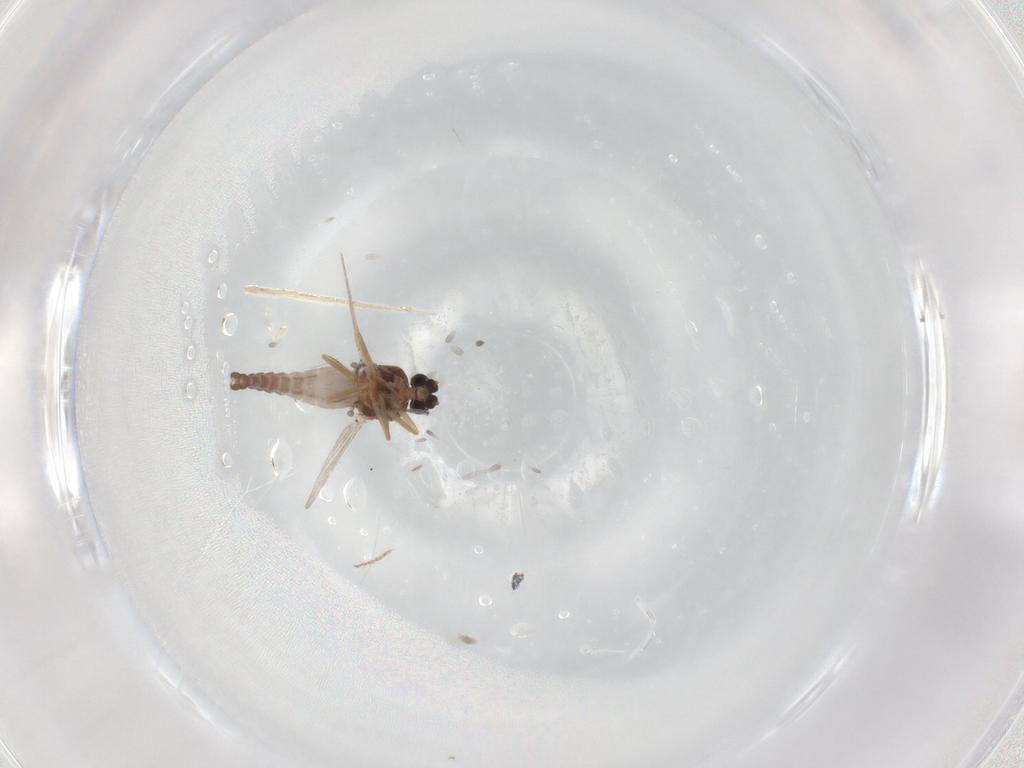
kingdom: Animalia
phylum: Arthropoda
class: Insecta
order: Diptera
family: Ceratopogonidae
